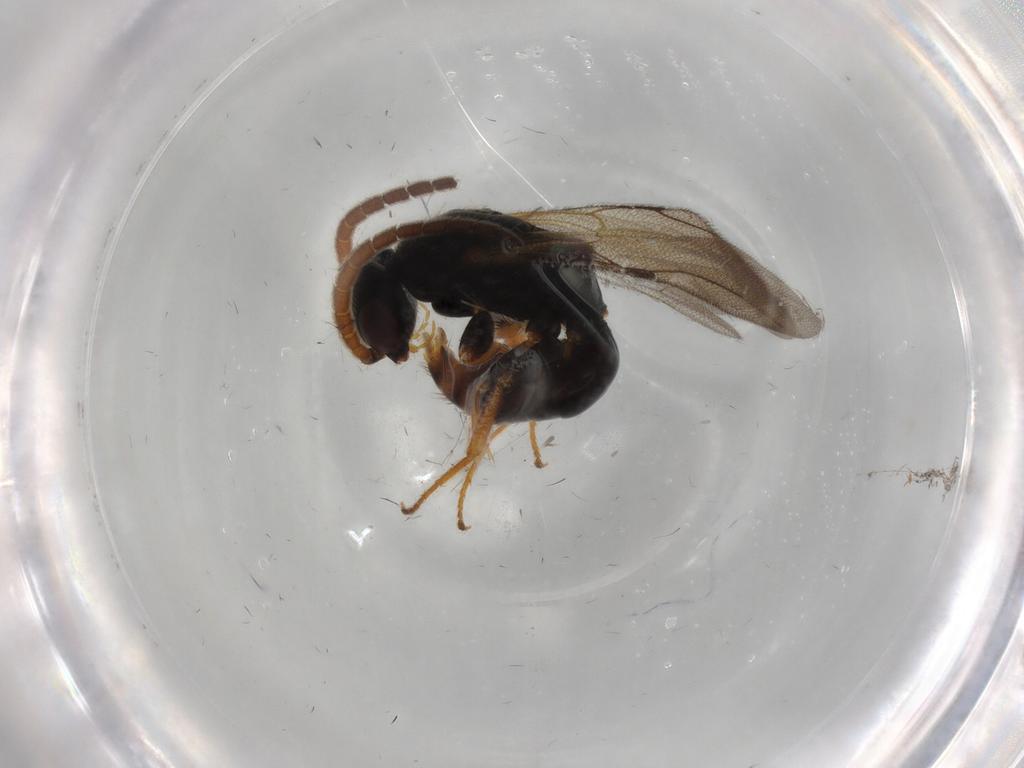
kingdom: Animalia
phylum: Arthropoda
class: Insecta
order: Hymenoptera
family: Bethylidae
